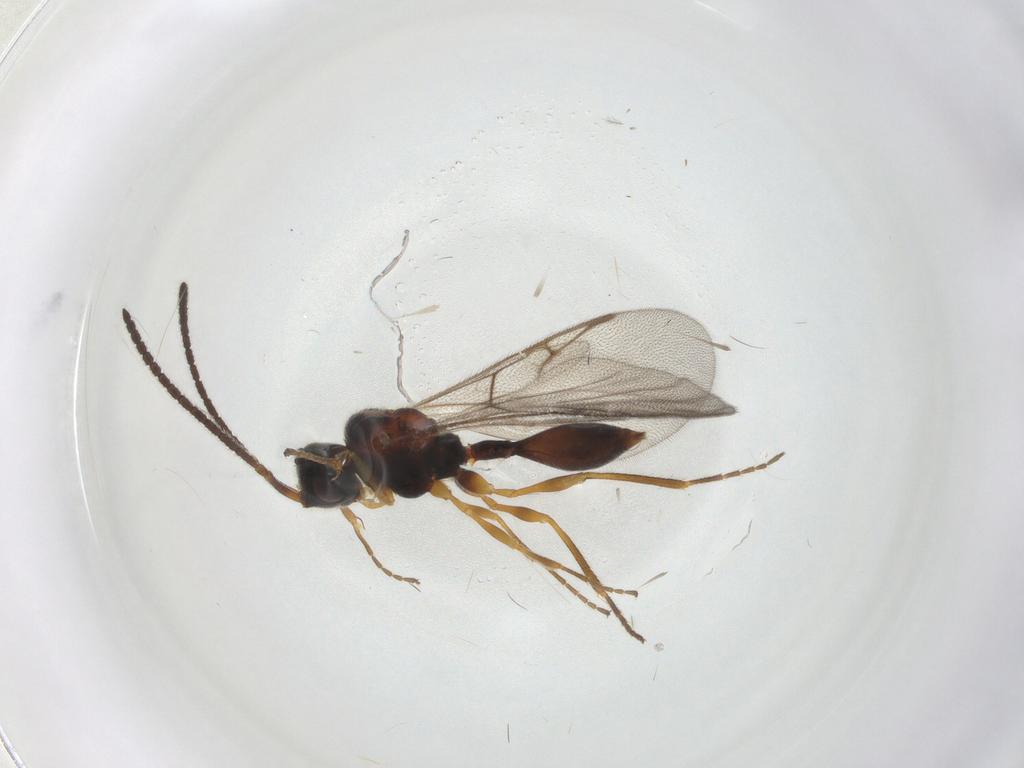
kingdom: Animalia
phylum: Arthropoda
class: Insecta
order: Hymenoptera
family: Diapriidae
